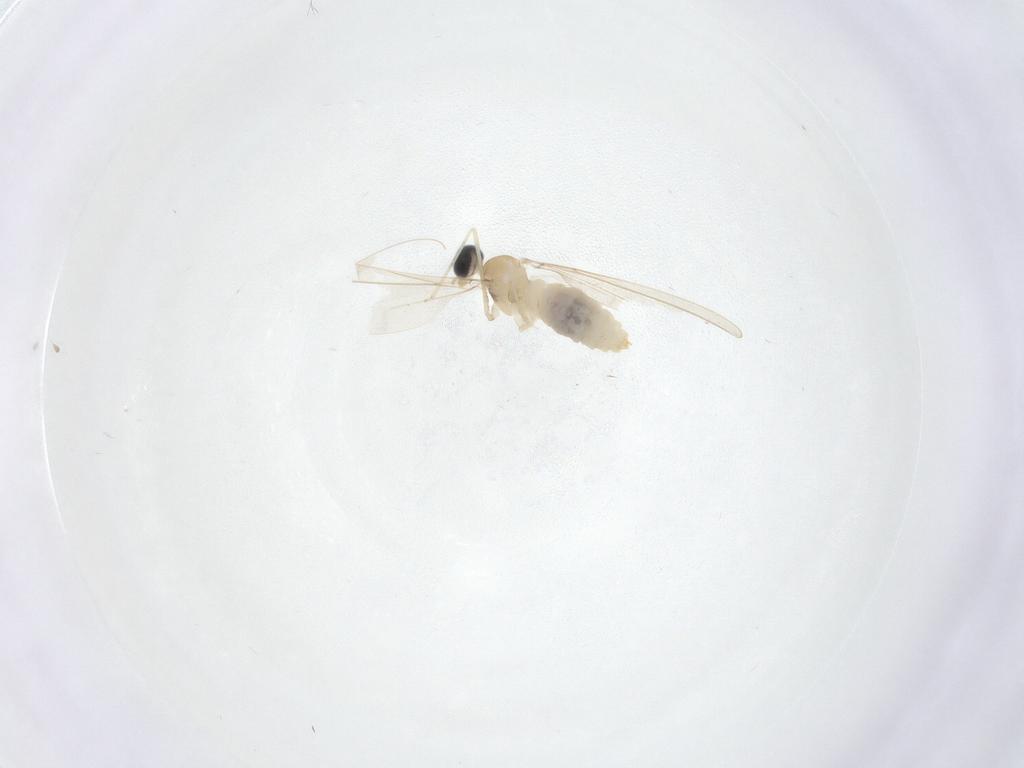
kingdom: Animalia
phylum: Arthropoda
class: Insecta
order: Diptera
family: Cecidomyiidae
